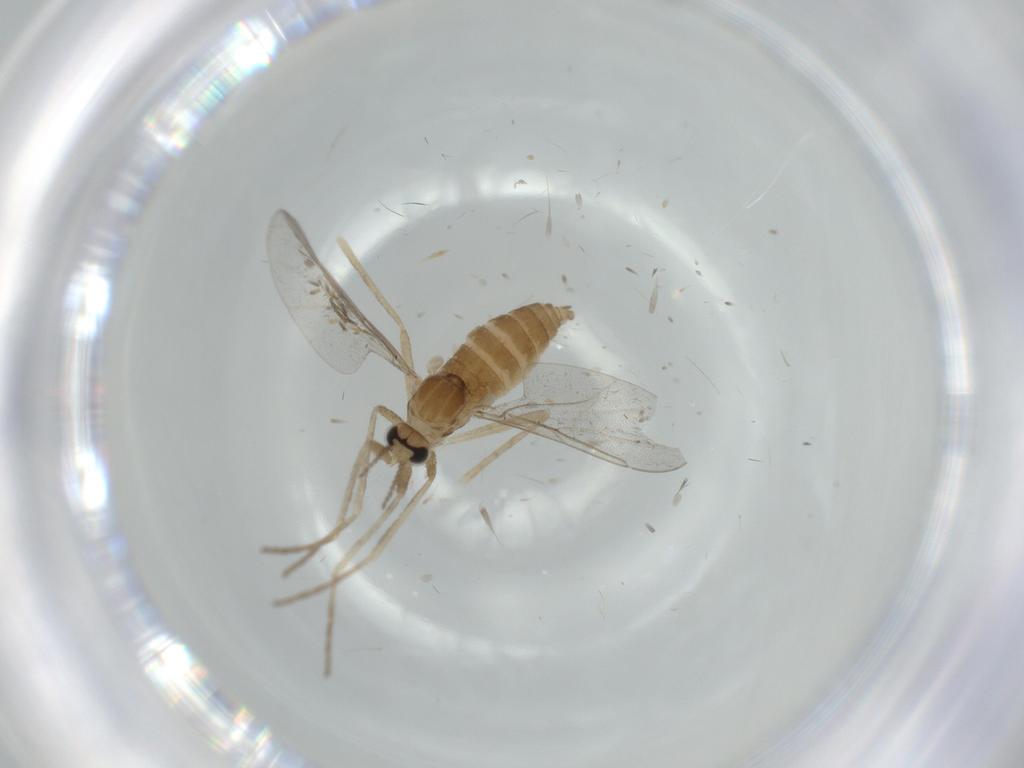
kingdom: Animalia
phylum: Arthropoda
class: Insecta
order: Diptera
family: Cecidomyiidae
